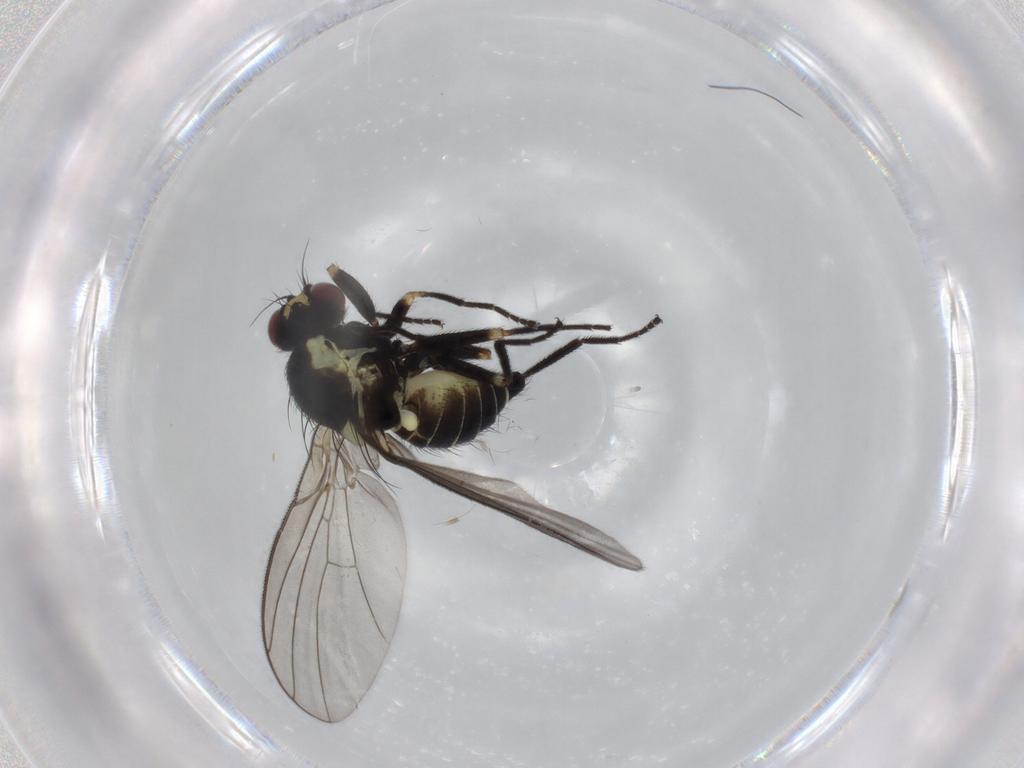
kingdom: Animalia
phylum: Arthropoda
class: Insecta
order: Diptera
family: Agromyzidae
